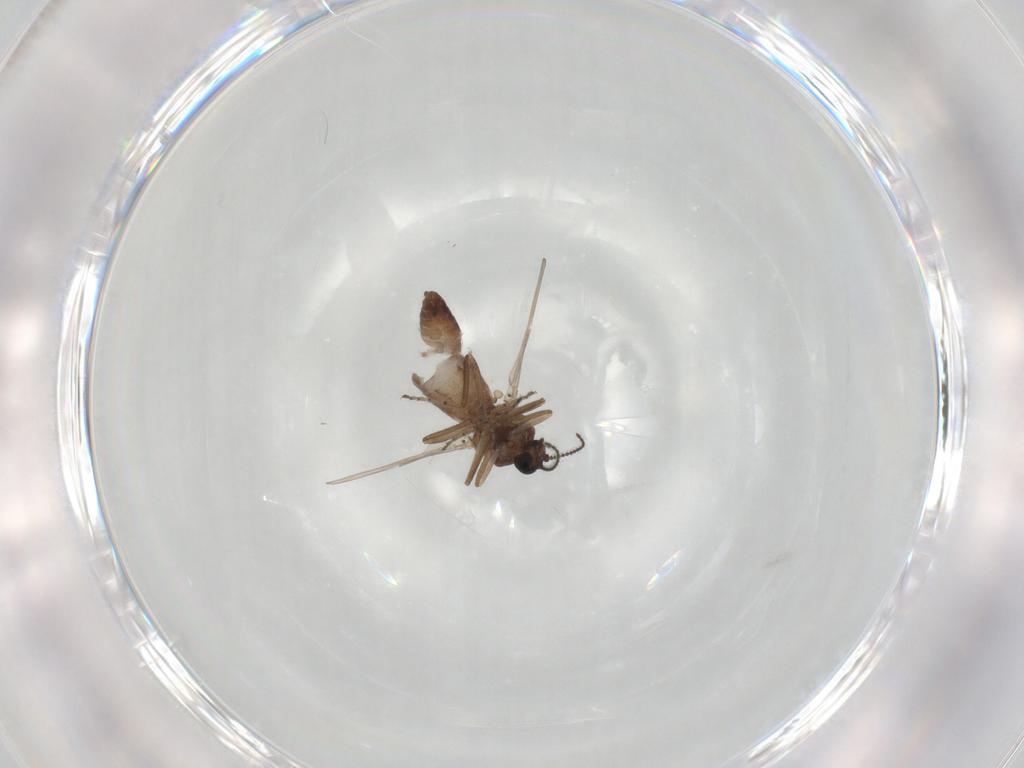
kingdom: Animalia
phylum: Arthropoda
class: Insecta
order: Diptera
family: Ceratopogonidae
